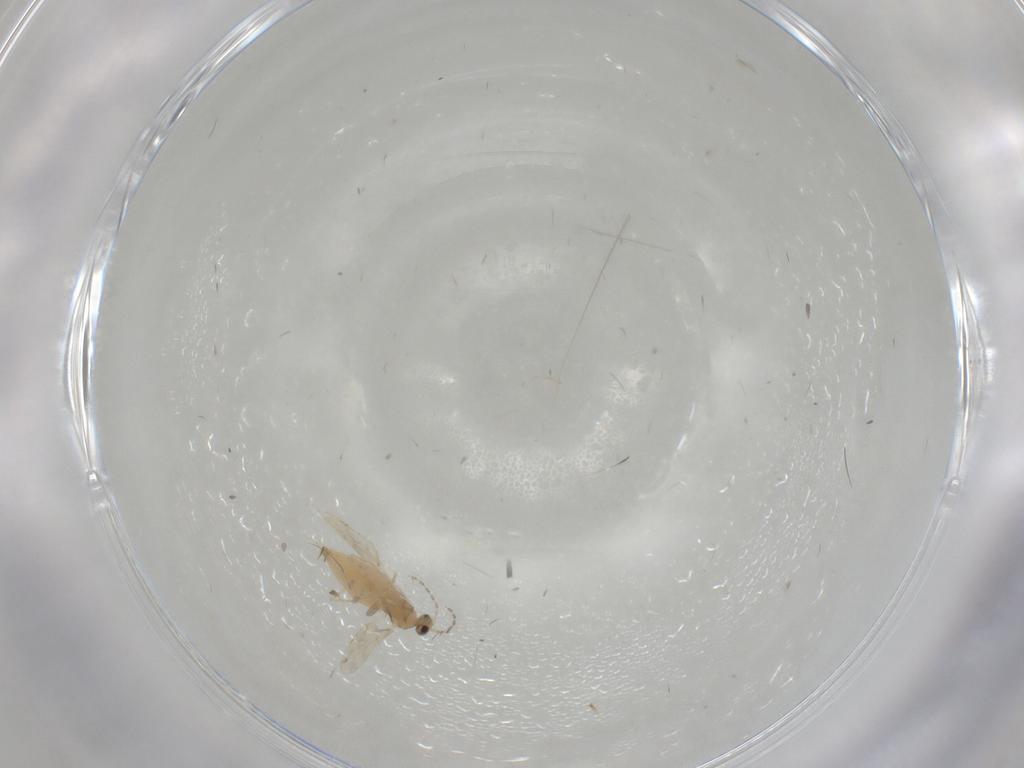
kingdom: Animalia
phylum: Arthropoda
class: Insecta
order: Diptera
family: Cecidomyiidae
